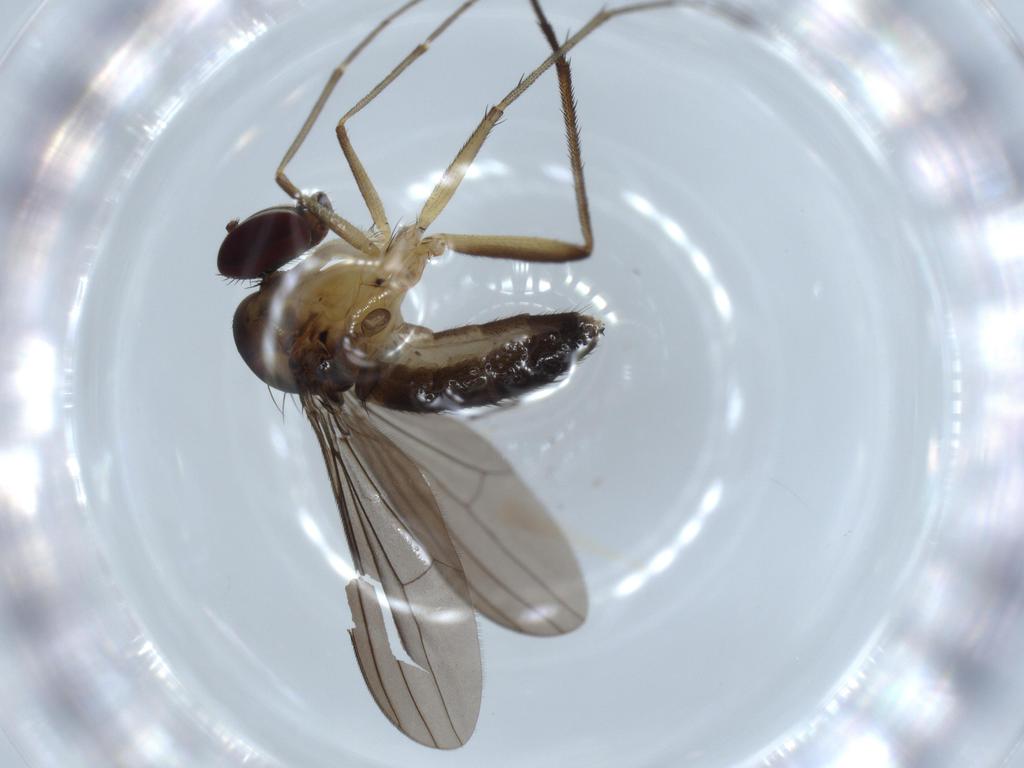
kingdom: Animalia
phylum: Arthropoda
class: Insecta
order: Diptera
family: Dolichopodidae
